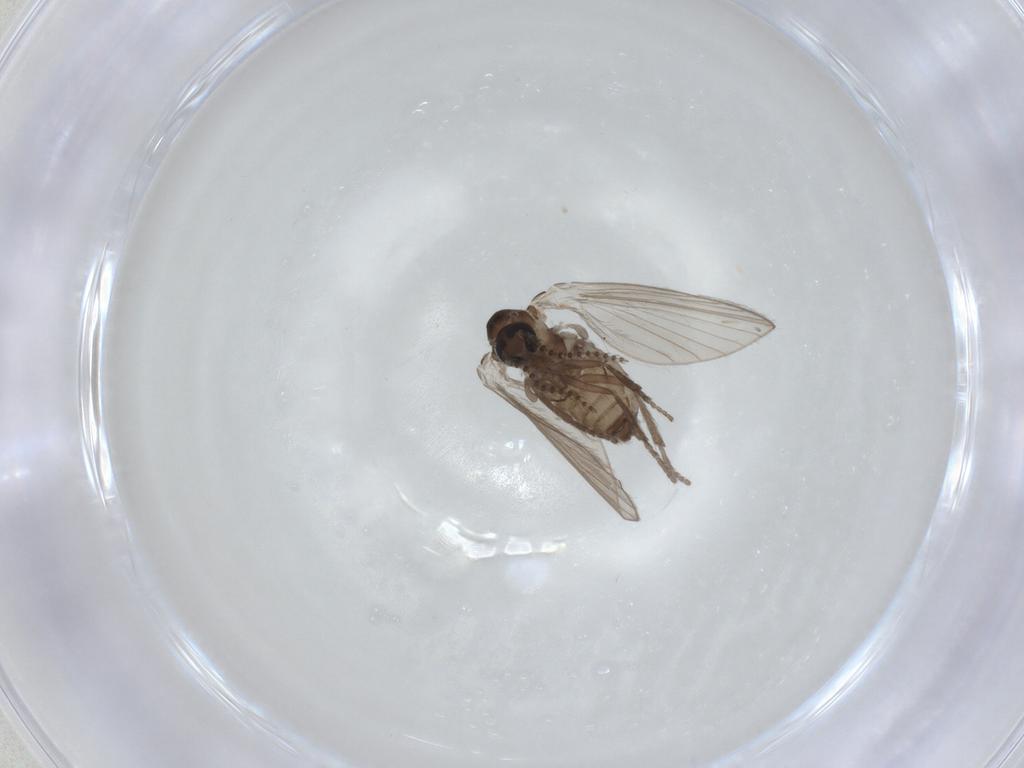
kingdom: Animalia
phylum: Arthropoda
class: Insecta
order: Diptera
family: Psychodidae
